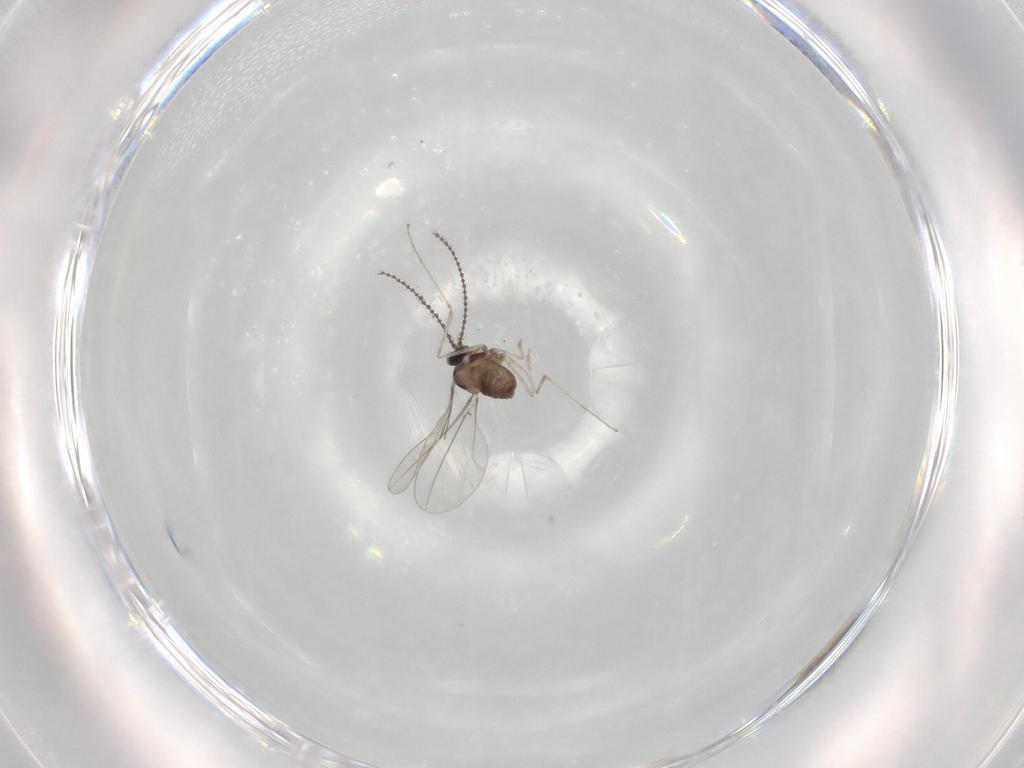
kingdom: Animalia
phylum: Arthropoda
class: Insecta
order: Diptera
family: Cecidomyiidae
